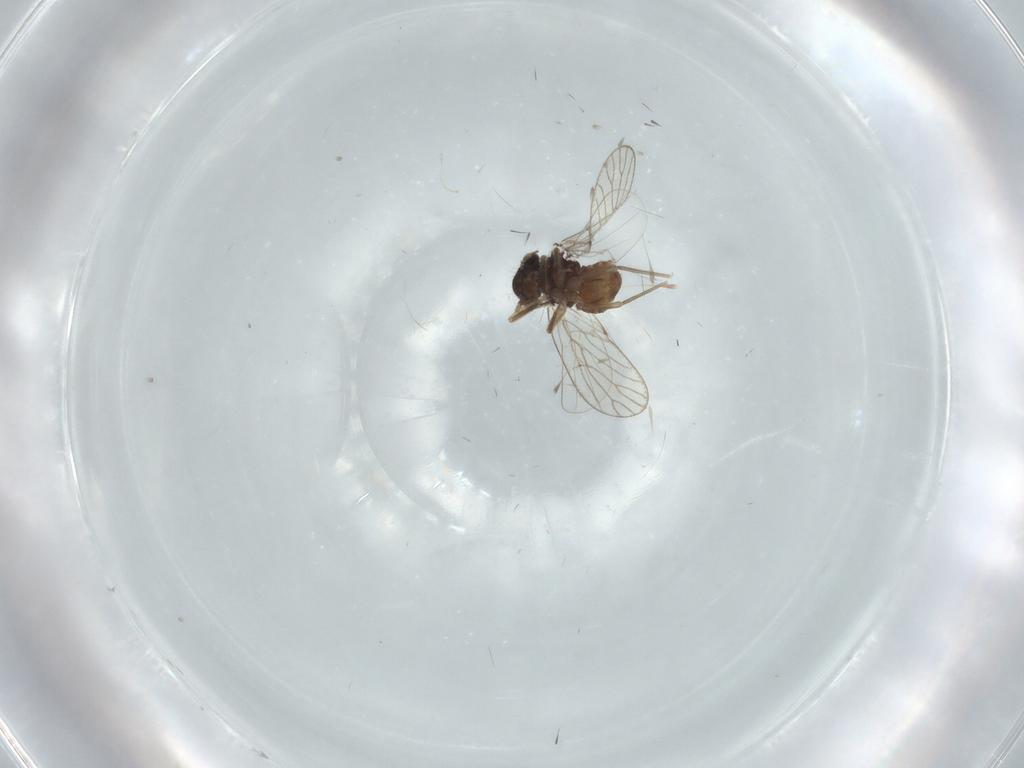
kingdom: Animalia
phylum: Arthropoda
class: Insecta
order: Psocodea
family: Psoquillidae
